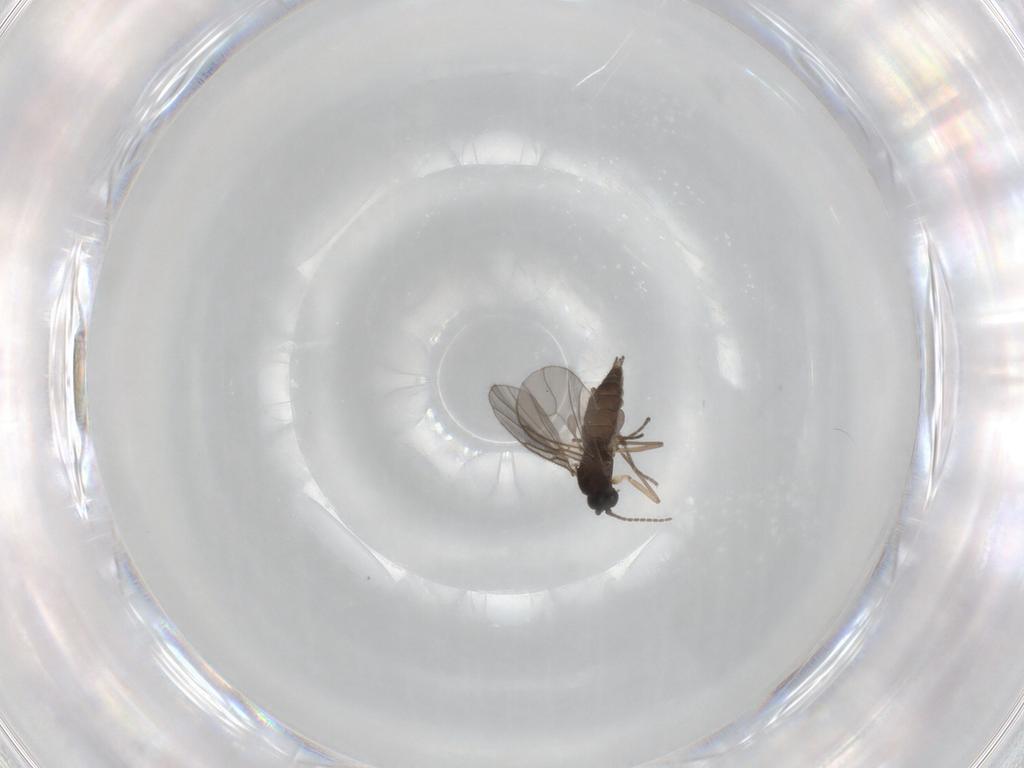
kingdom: Animalia
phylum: Arthropoda
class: Insecta
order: Diptera
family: Sciaridae
